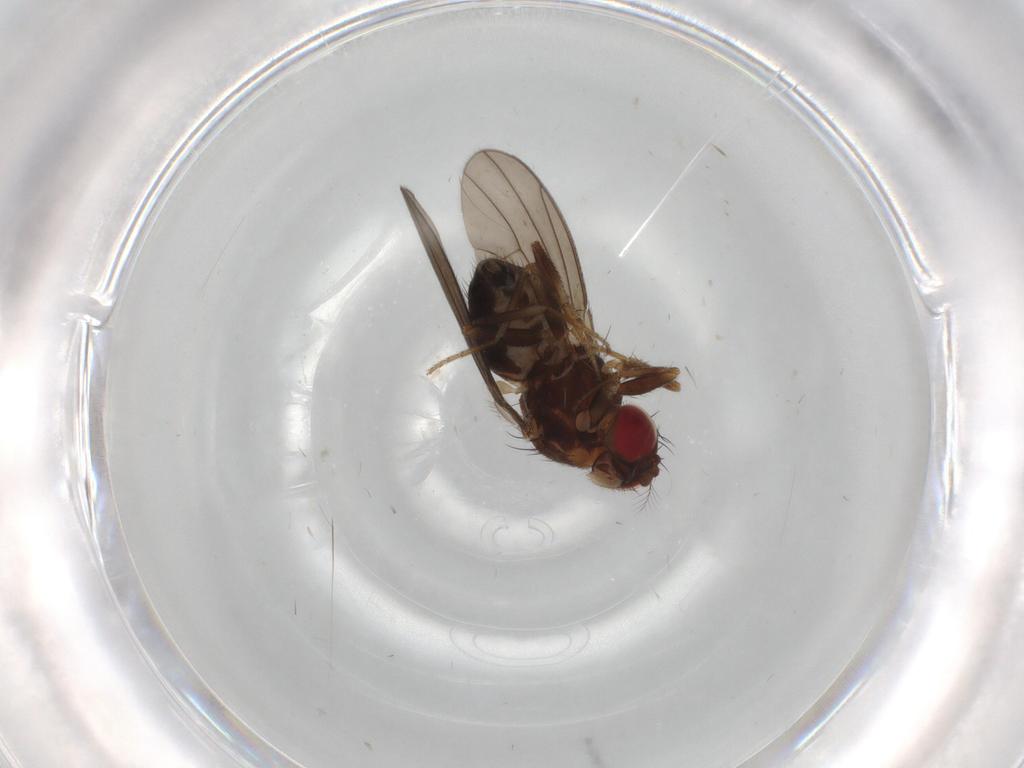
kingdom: Animalia
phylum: Arthropoda
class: Insecta
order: Diptera
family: Drosophilidae
